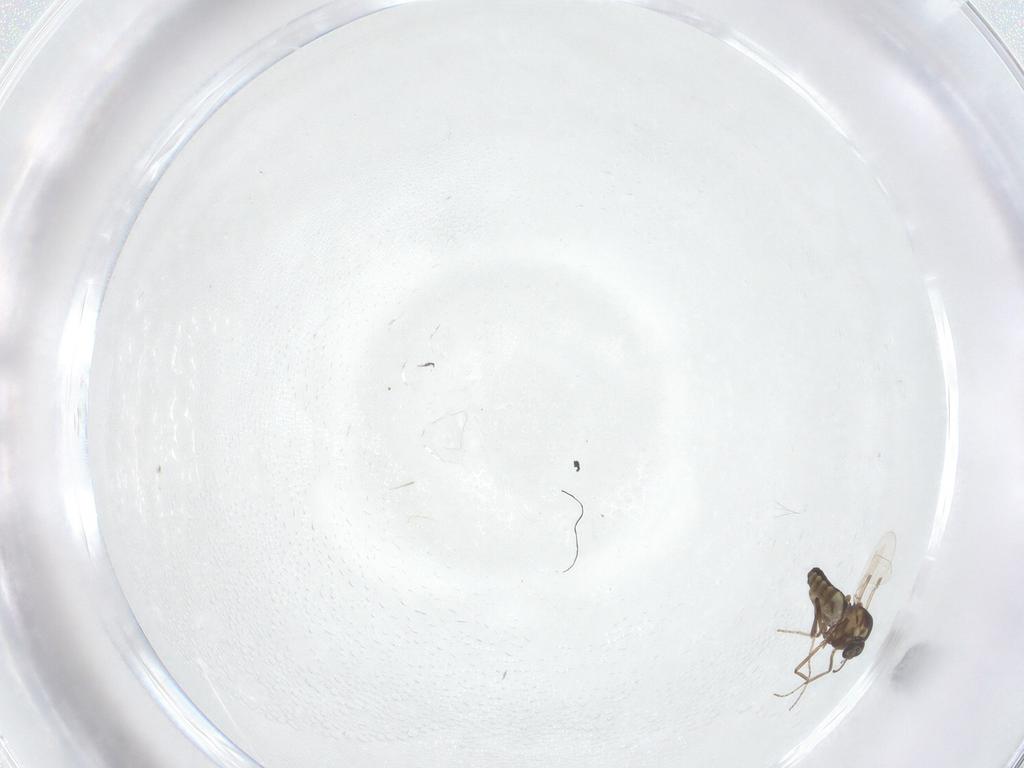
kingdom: Animalia
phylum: Arthropoda
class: Insecta
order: Diptera
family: Ceratopogonidae
